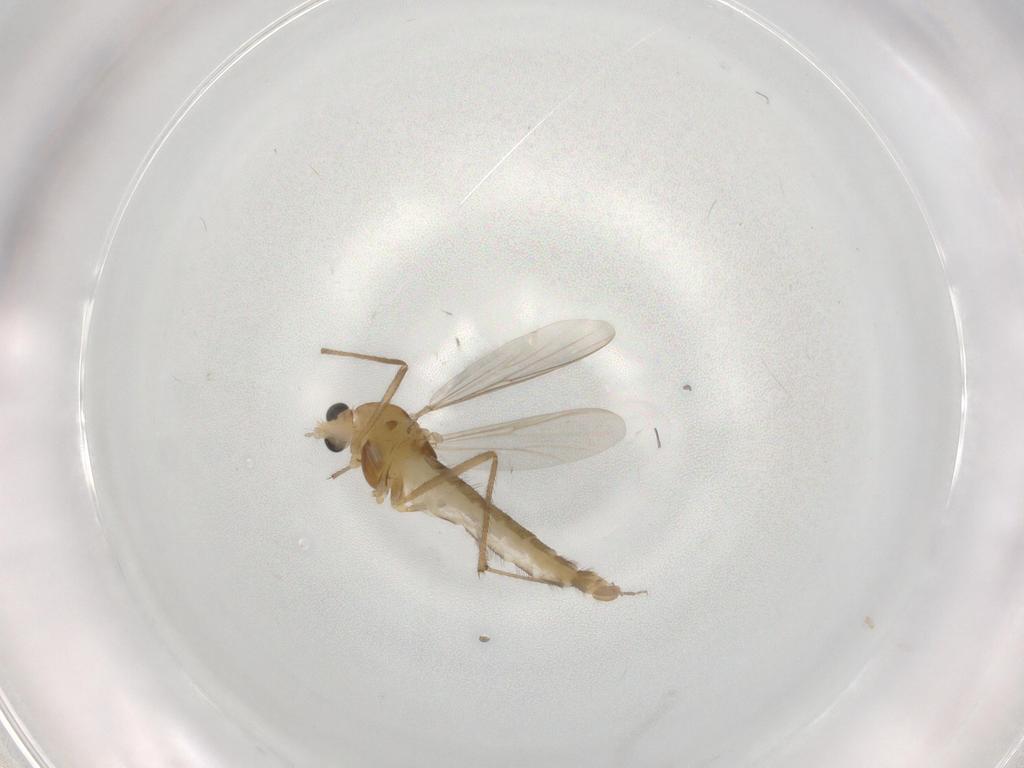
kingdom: Animalia
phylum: Arthropoda
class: Insecta
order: Diptera
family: Chironomidae
